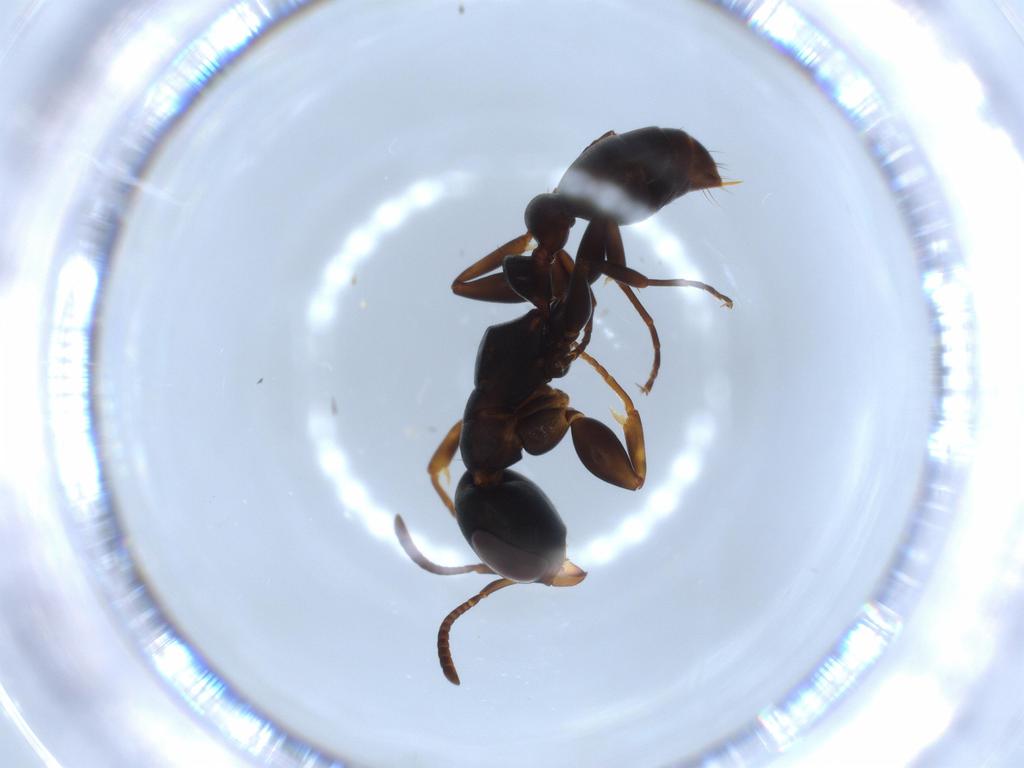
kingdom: Animalia
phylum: Arthropoda
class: Insecta
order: Hymenoptera
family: Formicidae
